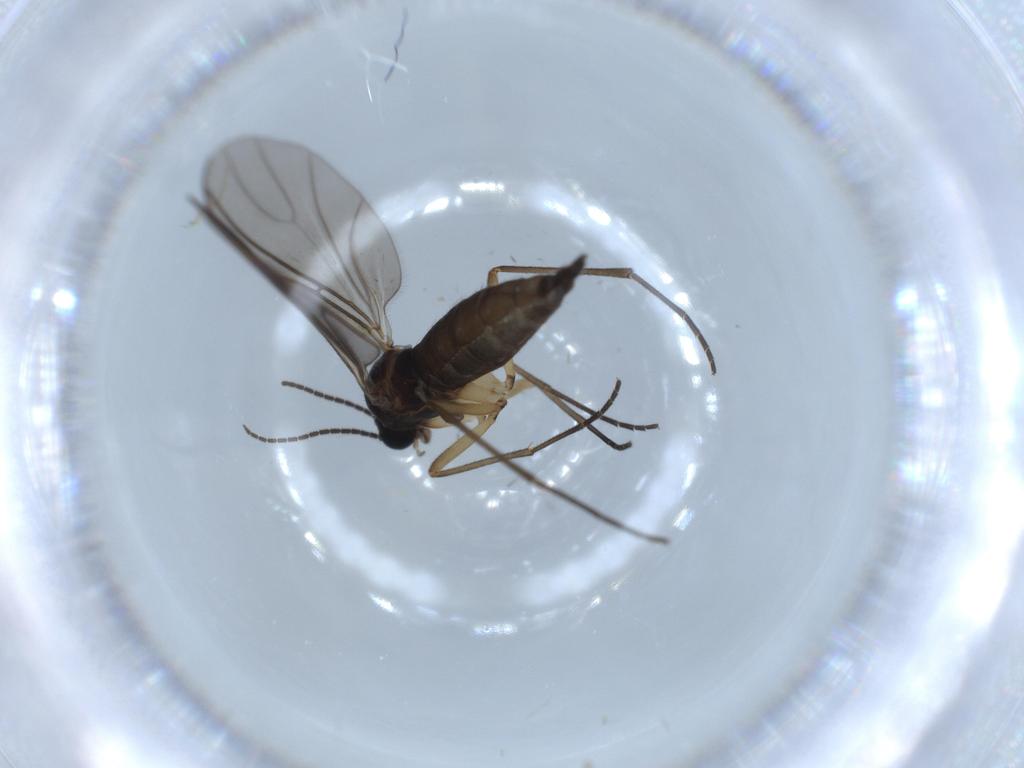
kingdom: Animalia
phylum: Arthropoda
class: Insecta
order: Diptera
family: Sciaridae
